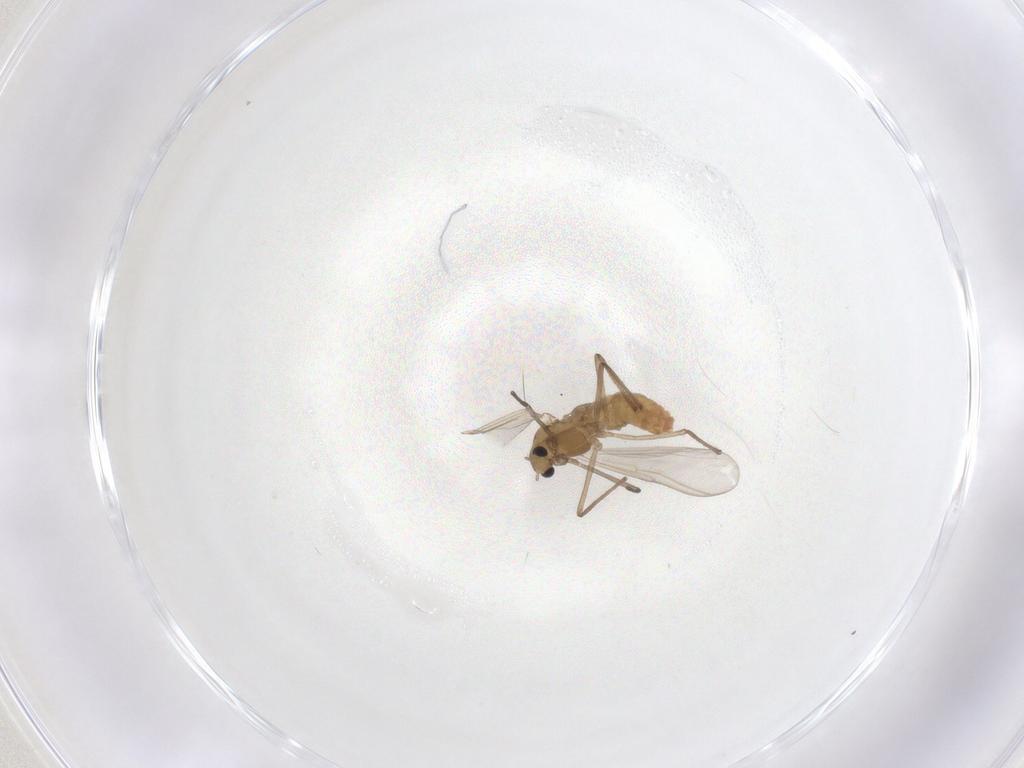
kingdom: Animalia
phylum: Arthropoda
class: Insecta
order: Diptera
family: Chironomidae
